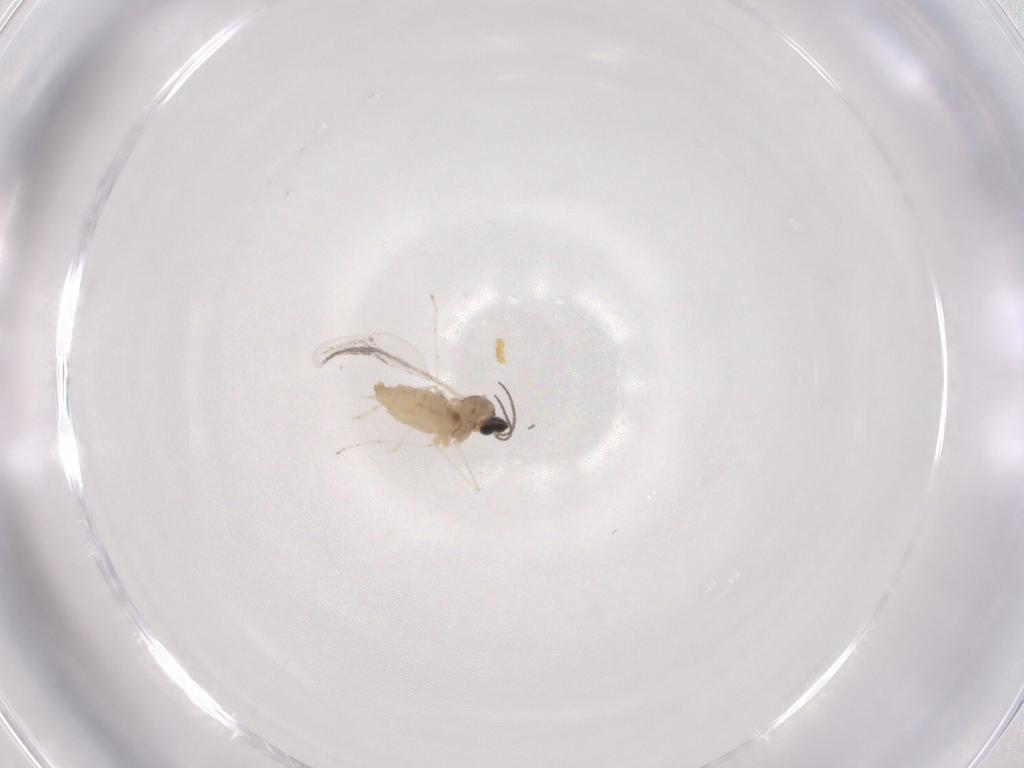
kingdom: Animalia
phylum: Arthropoda
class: Insecta
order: Diptera
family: Cecidomyiidae
